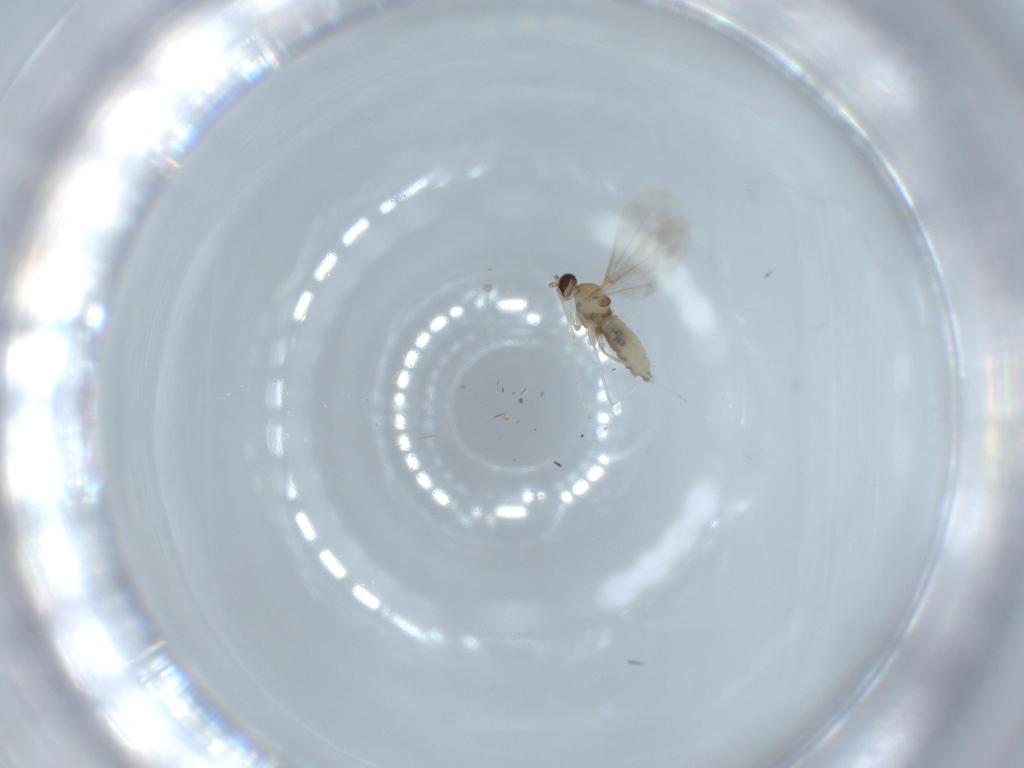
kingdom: Animalia
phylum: Arthropoda
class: Insecta
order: Diptera
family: Cecidomyiidae
